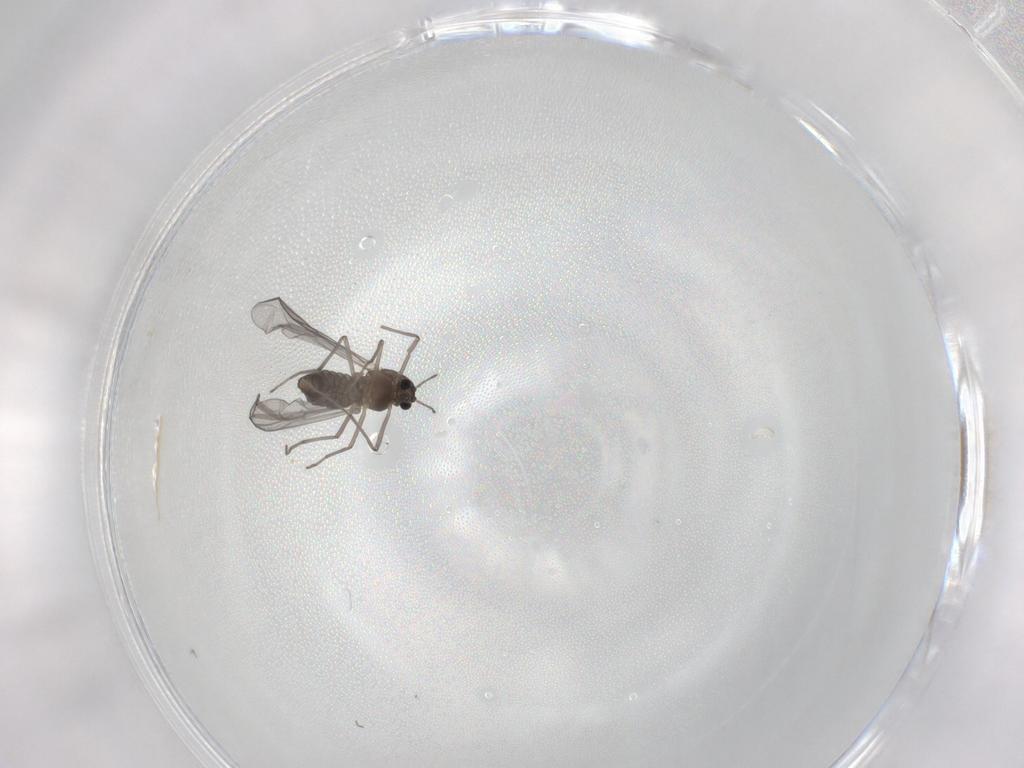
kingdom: Animalia
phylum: Arthropoda
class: Insecta
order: Diptera
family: Chironomidae
